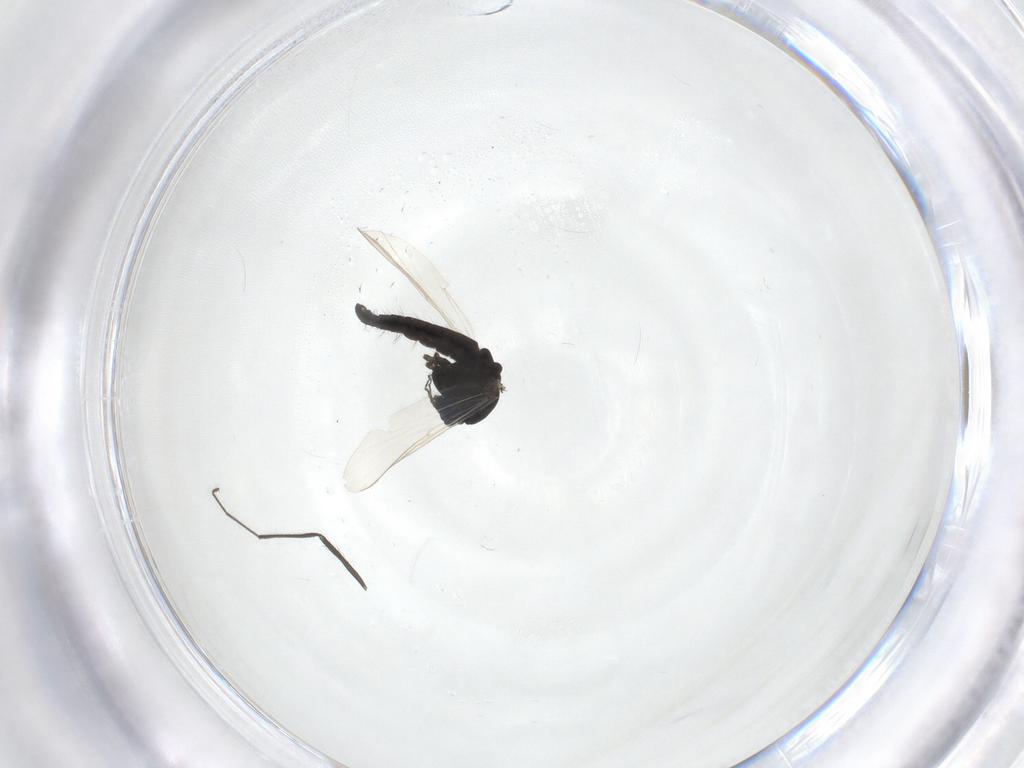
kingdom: Animalia
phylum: Arthropoda
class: Insecta
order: Diptera
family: Chironomidae
